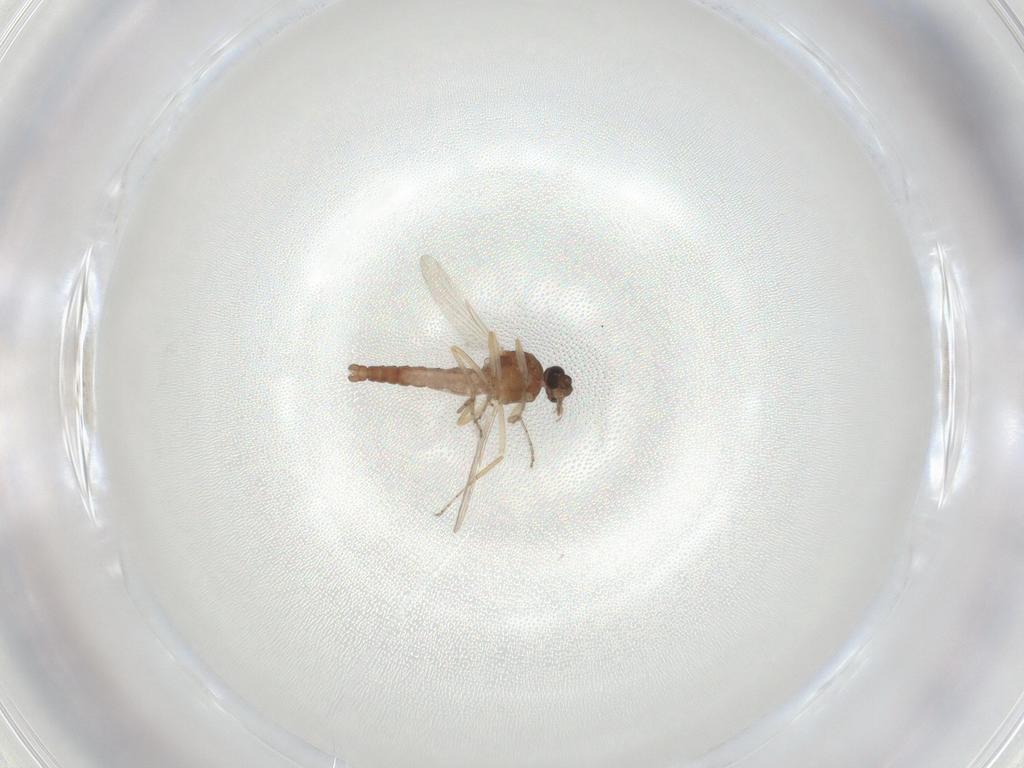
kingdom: Animalia
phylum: Arthropoda
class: Insecta
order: Diptera
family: Ceratopogonidae
